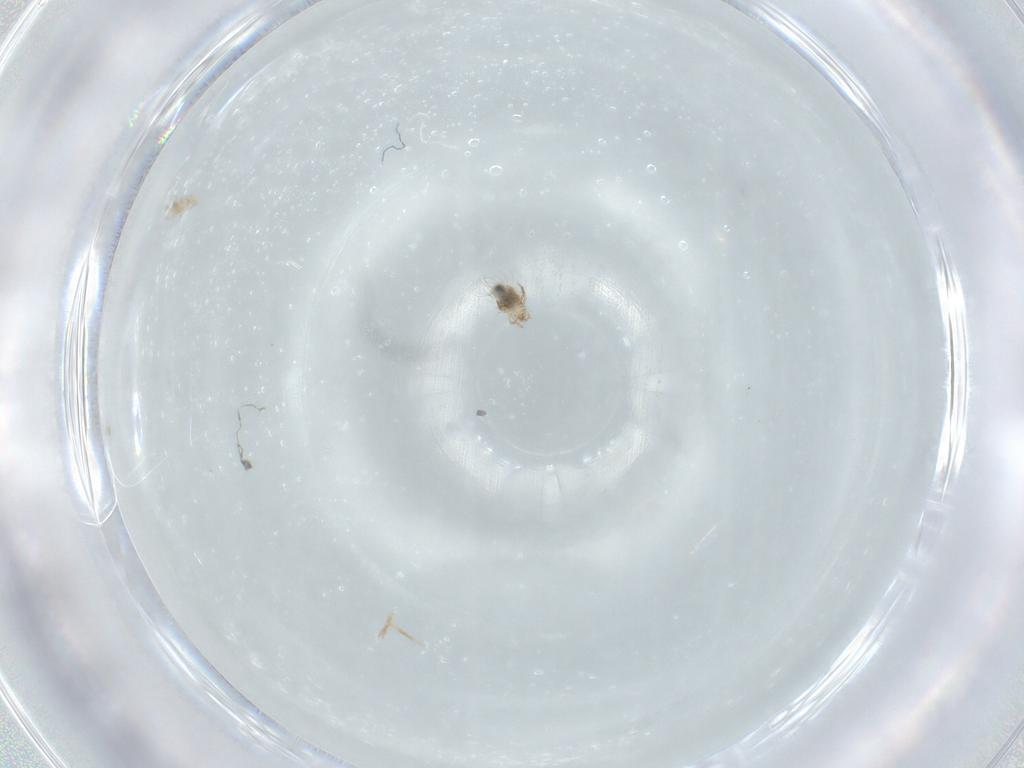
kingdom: Animalia
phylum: Arthropoda
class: Arachnida
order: Sarcoptiformes
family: Mochlozetidae
